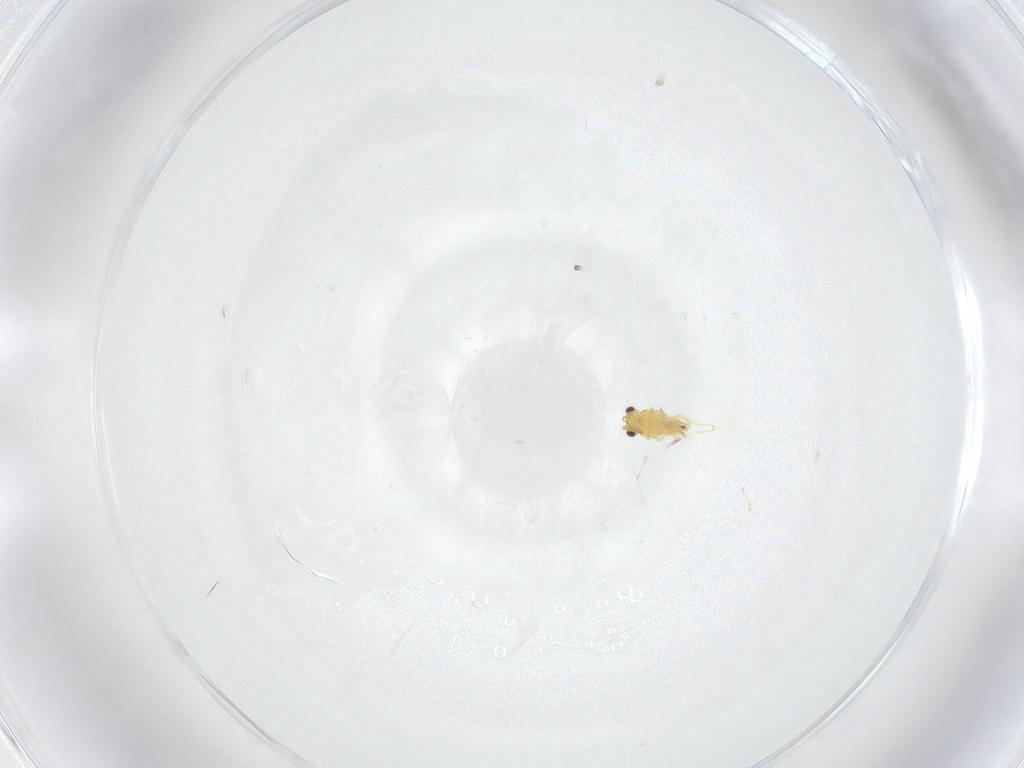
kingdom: Animalia
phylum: Arthropoda
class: Insecta
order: Hymenoptera
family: Aphelinidae
